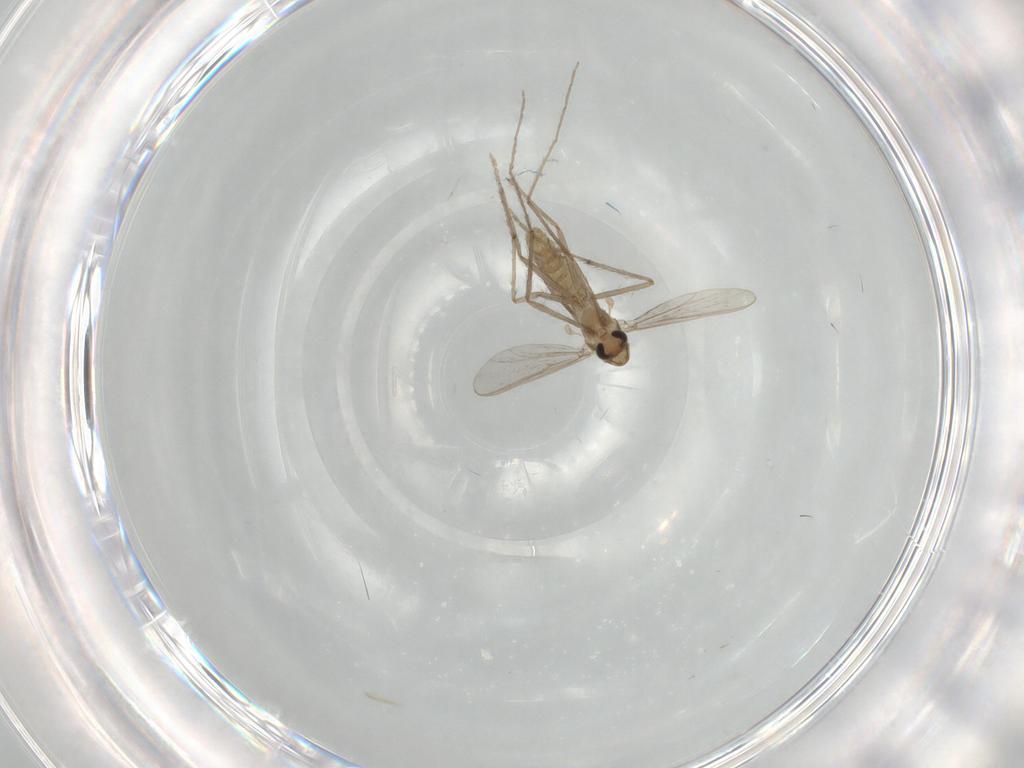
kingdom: Animalia
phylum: Arthropoda
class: Insecta
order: Diptera
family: Chironomidae
